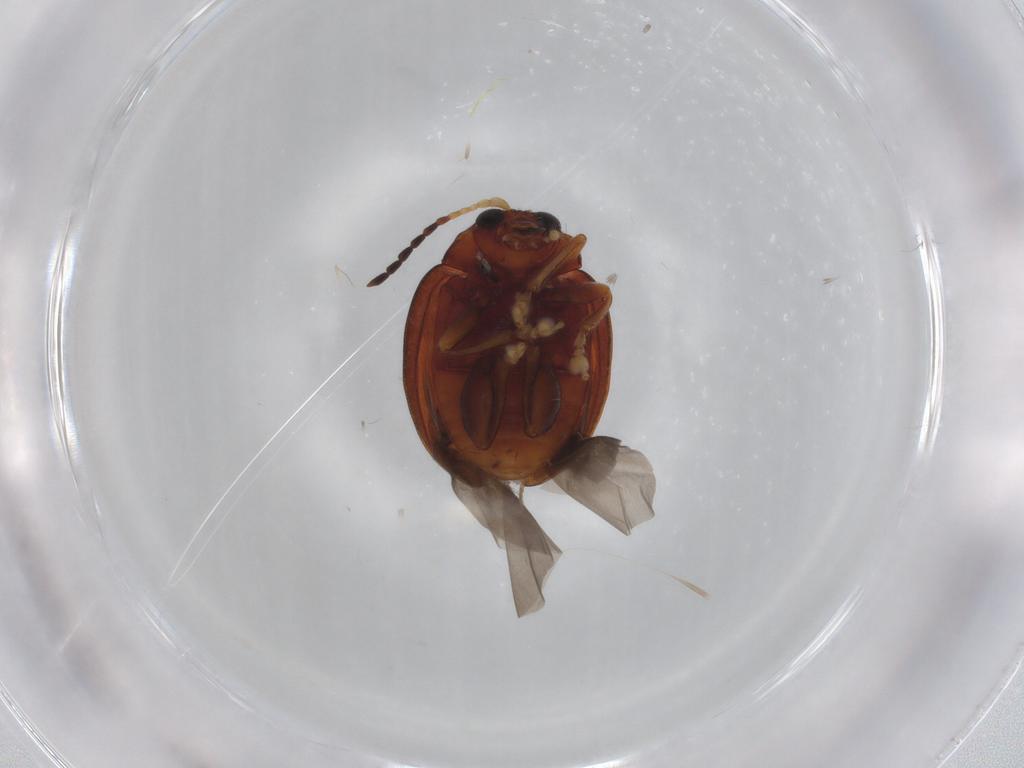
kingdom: Animalia
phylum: Arthropoda
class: Insecta
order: Coleoptera
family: Chrysomelidae
